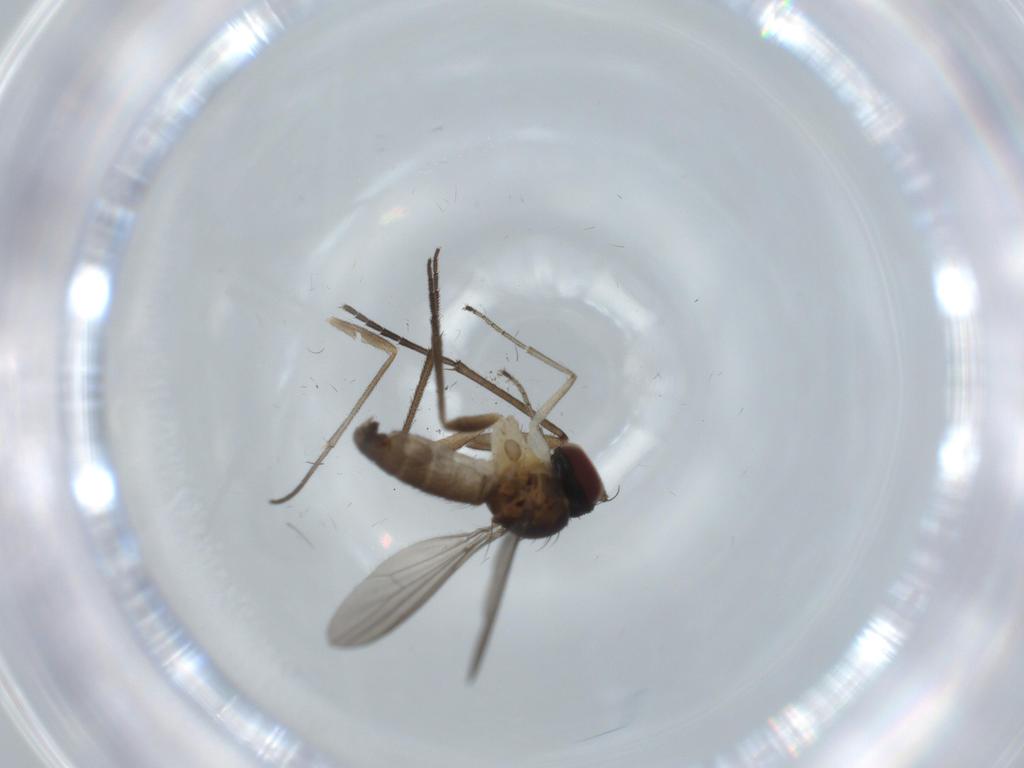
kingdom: Animalia
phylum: Arthropoda
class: Insecta
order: Diptera
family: Sciaridae
